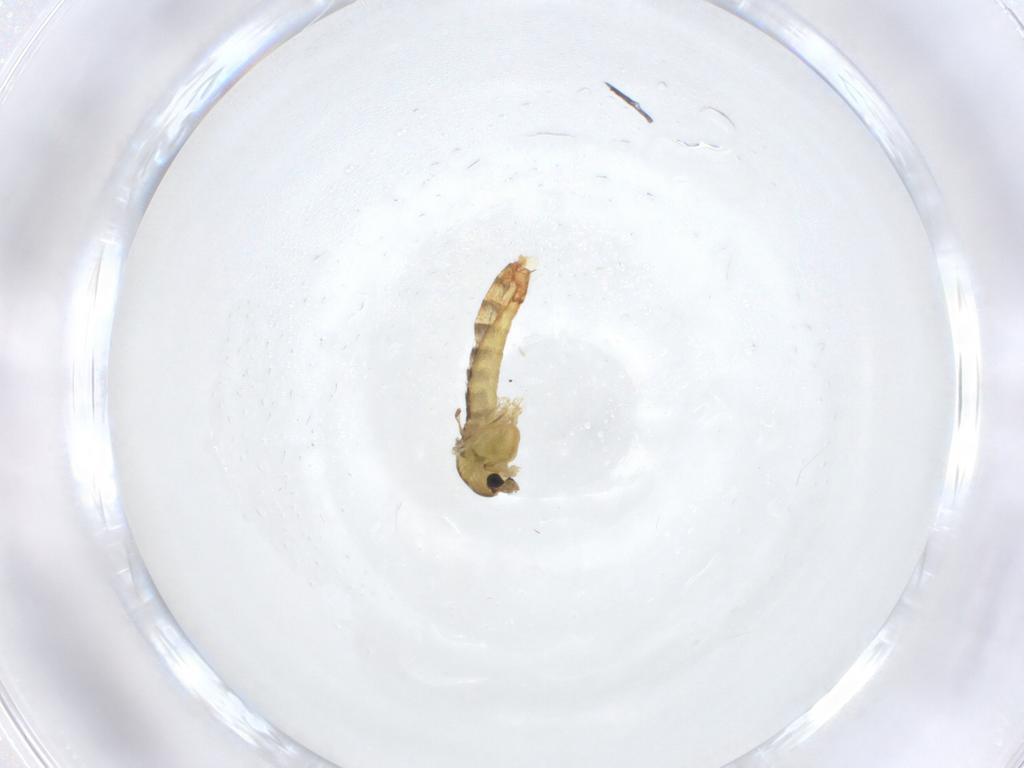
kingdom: Animalia
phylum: Arthropoda
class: Insecta
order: Diptera
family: Chironomidae
